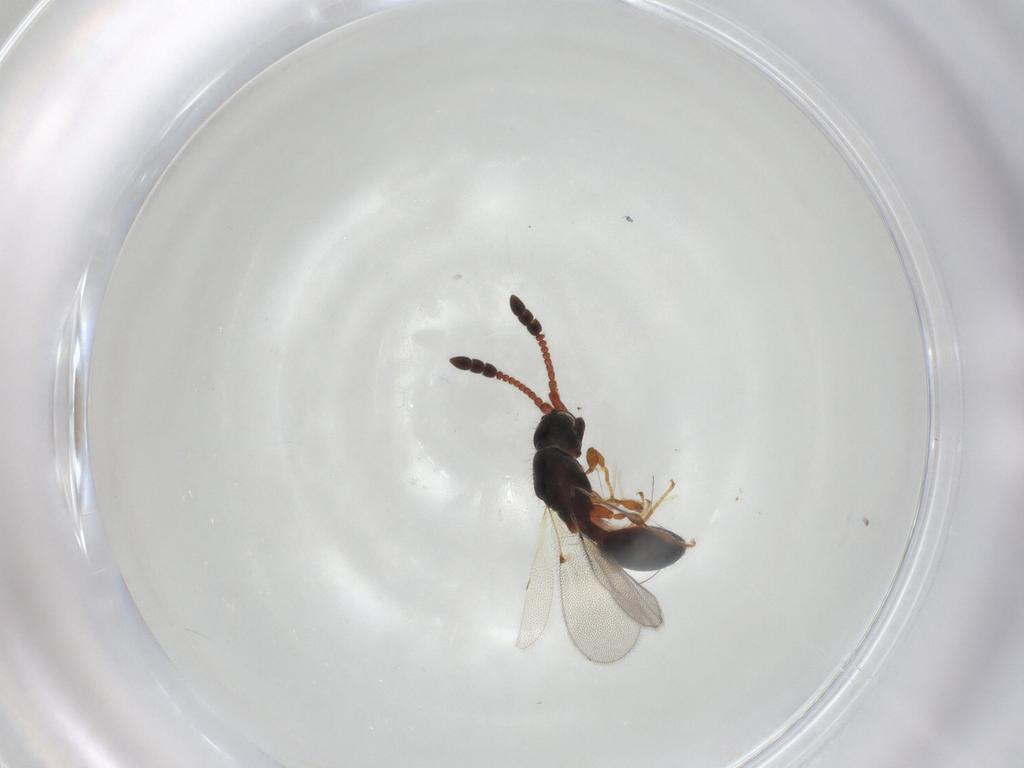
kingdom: Animalia
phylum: Arthropoda
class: Insecta
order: Hymenoptera
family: Diapriidae
